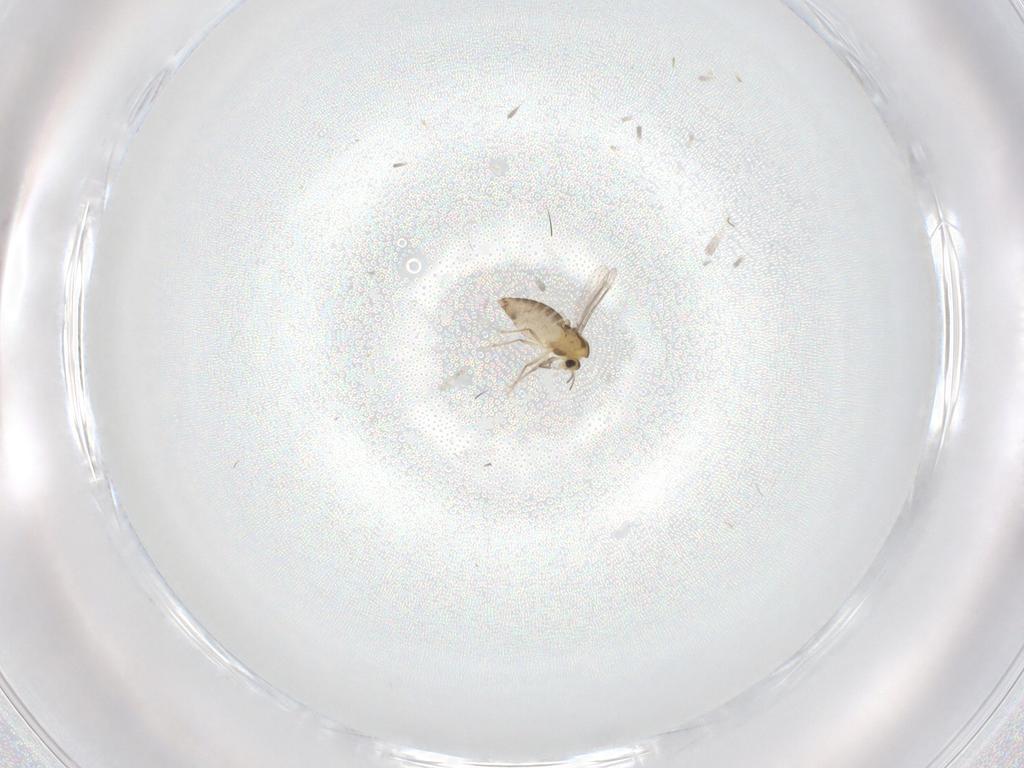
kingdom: Animalia
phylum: Arthropoda
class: Insecta
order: Diptera
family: Chironomidae
